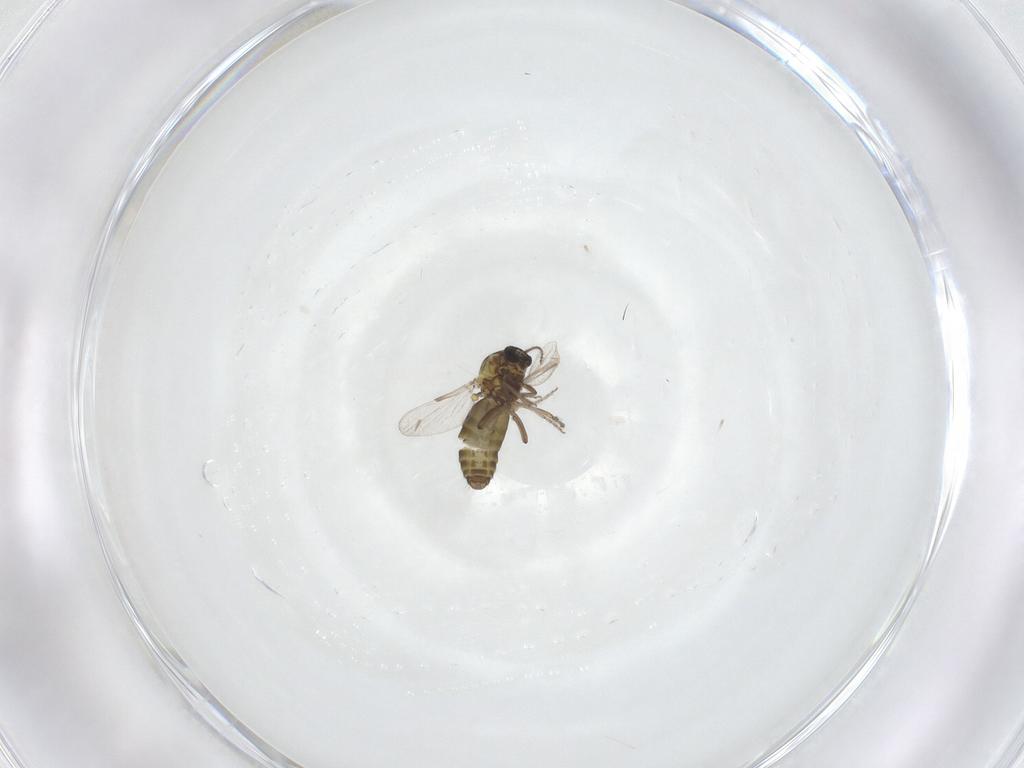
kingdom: Animalia
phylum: Arthropoda
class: Insecta
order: Diptera
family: Ceratopogonidae
